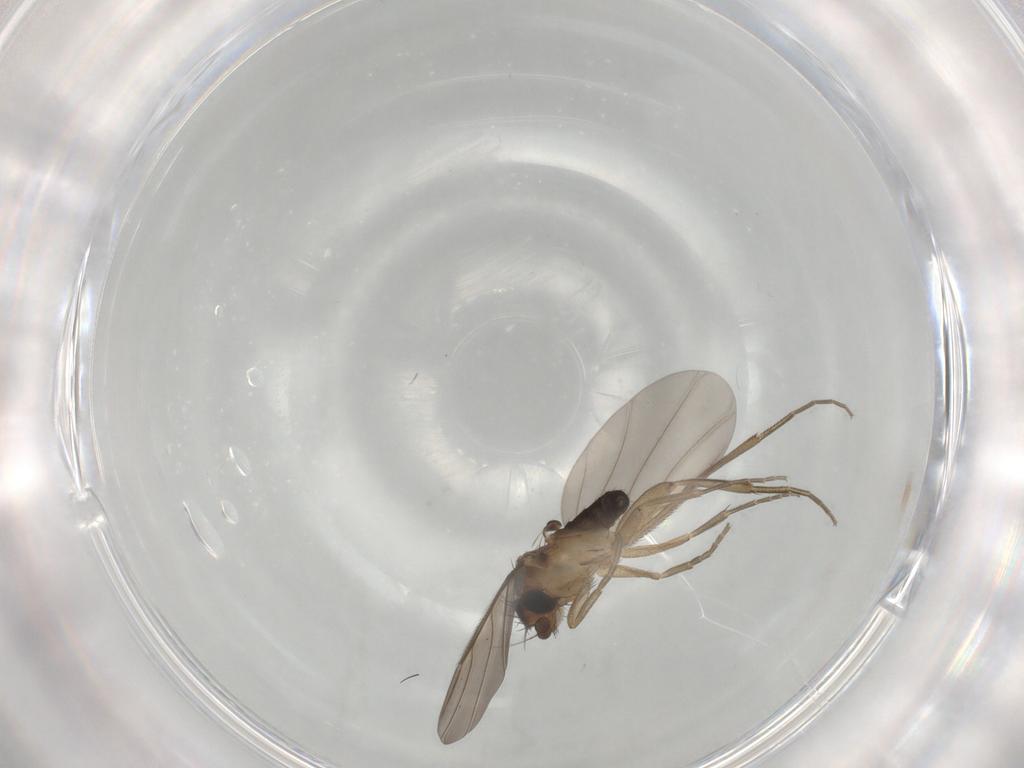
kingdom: Animalia
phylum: Arthropoda
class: Insecta
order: Diptera
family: Phoridae
